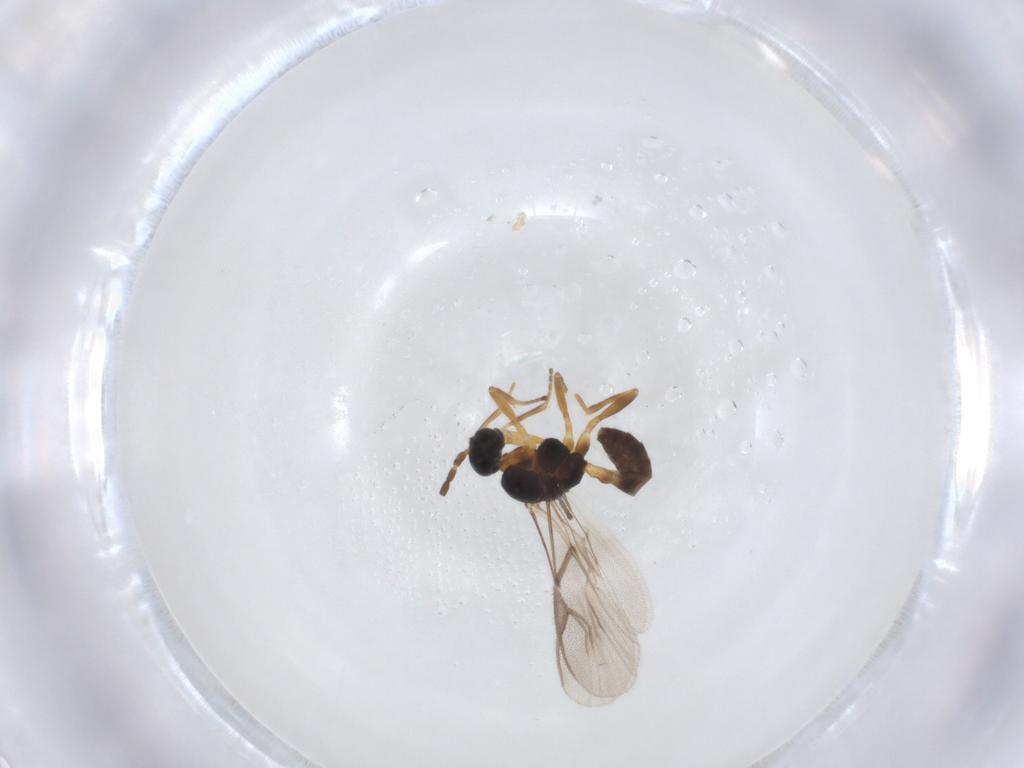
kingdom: Animalia
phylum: Arthropoda
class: Insecta
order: Hymenoptera
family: Braconidae
